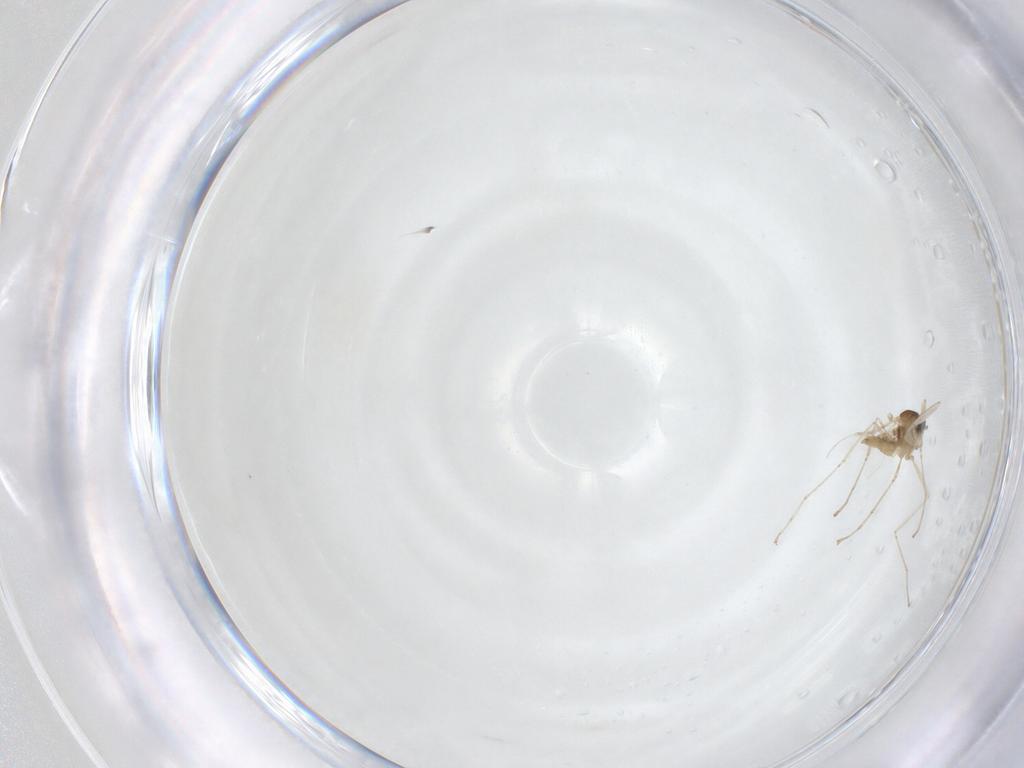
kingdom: Animalia
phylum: Arthropoda
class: Insecta
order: Diptera
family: Cecidomyiidae
